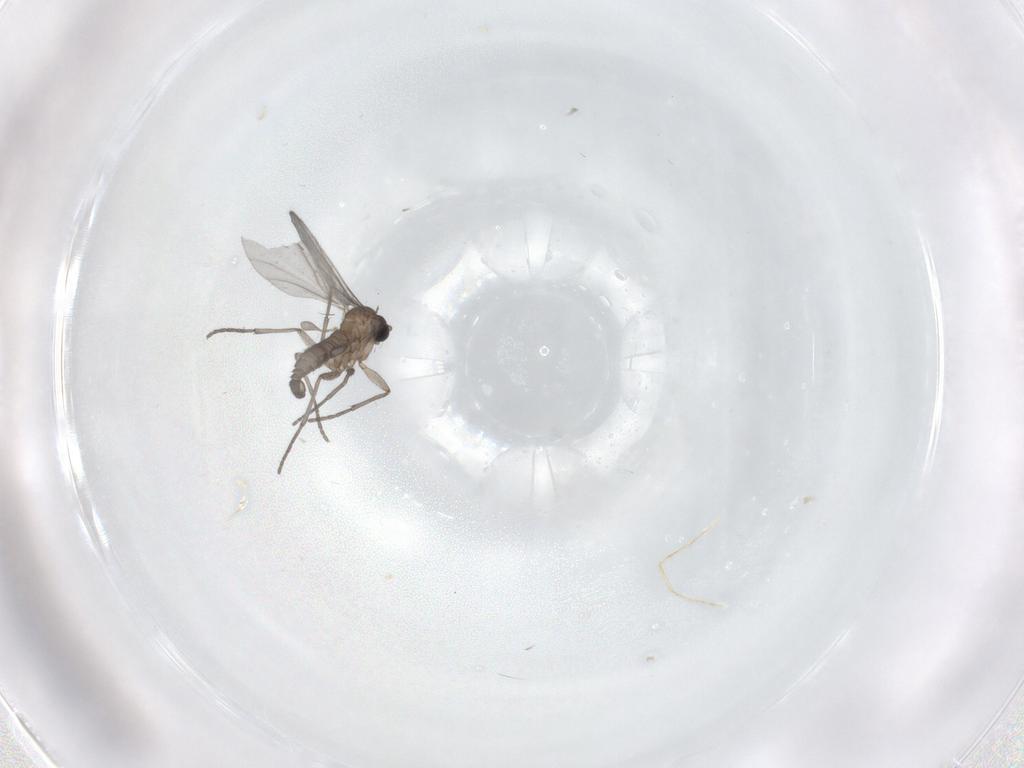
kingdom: Animalia
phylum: Arthropoda
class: Insecta
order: Diptera
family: Sciaridae
